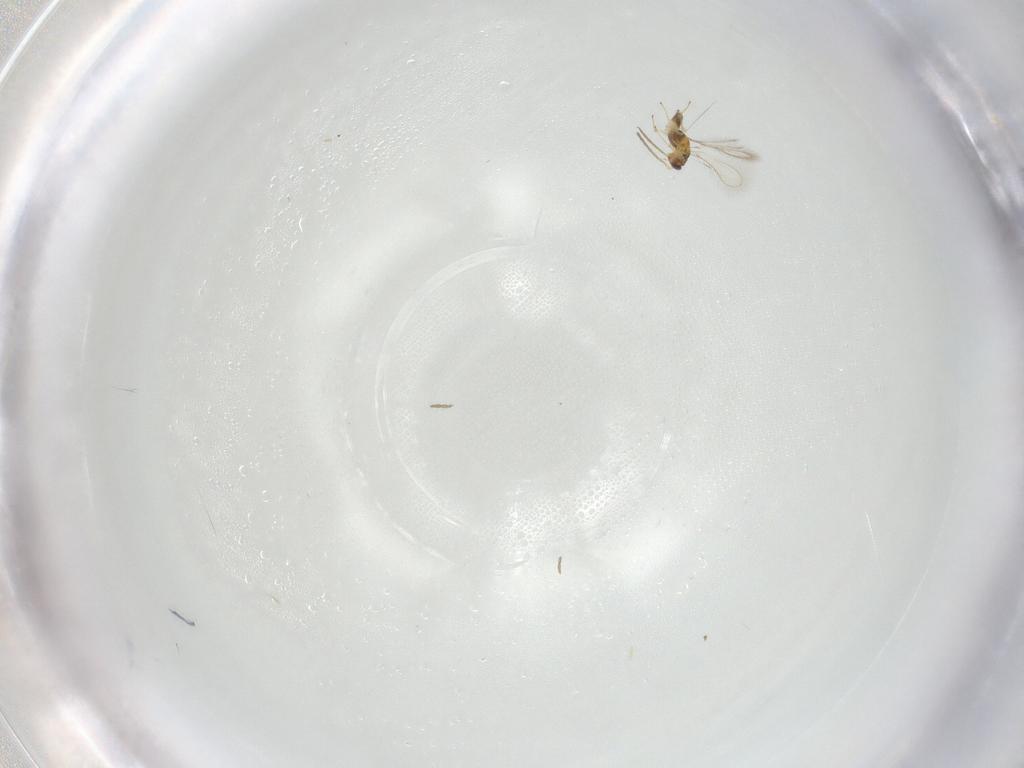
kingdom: Animalia
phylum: Arthropoda
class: Insecta
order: Hymenoptera
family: Mymaridae
